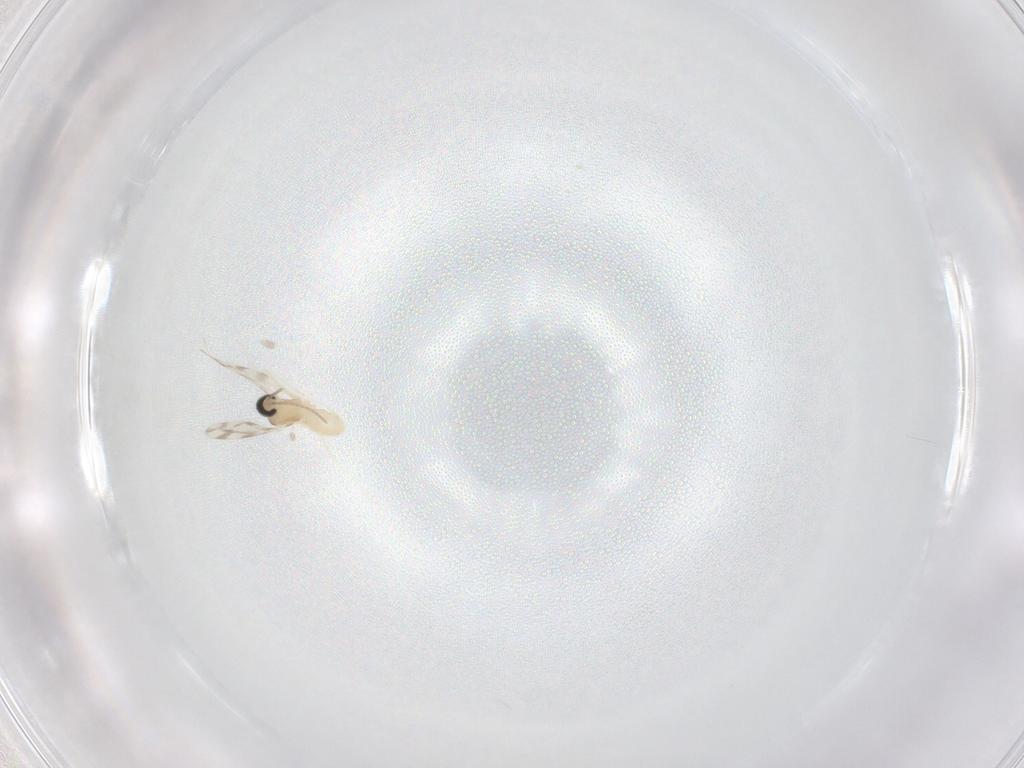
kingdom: Animalia
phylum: Arthropoda
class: Insecta
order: Diptera
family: Cecidomyiidae
